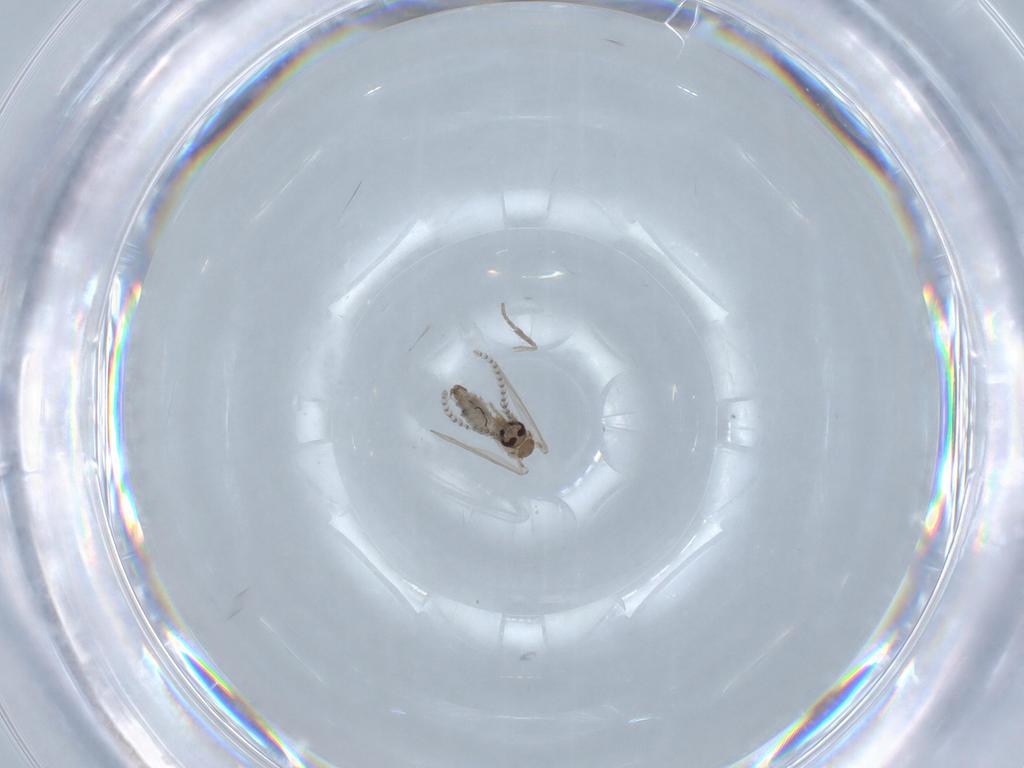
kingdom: Animalia
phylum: Arthropoda
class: Insecta
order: Diptera
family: Psychodidae
